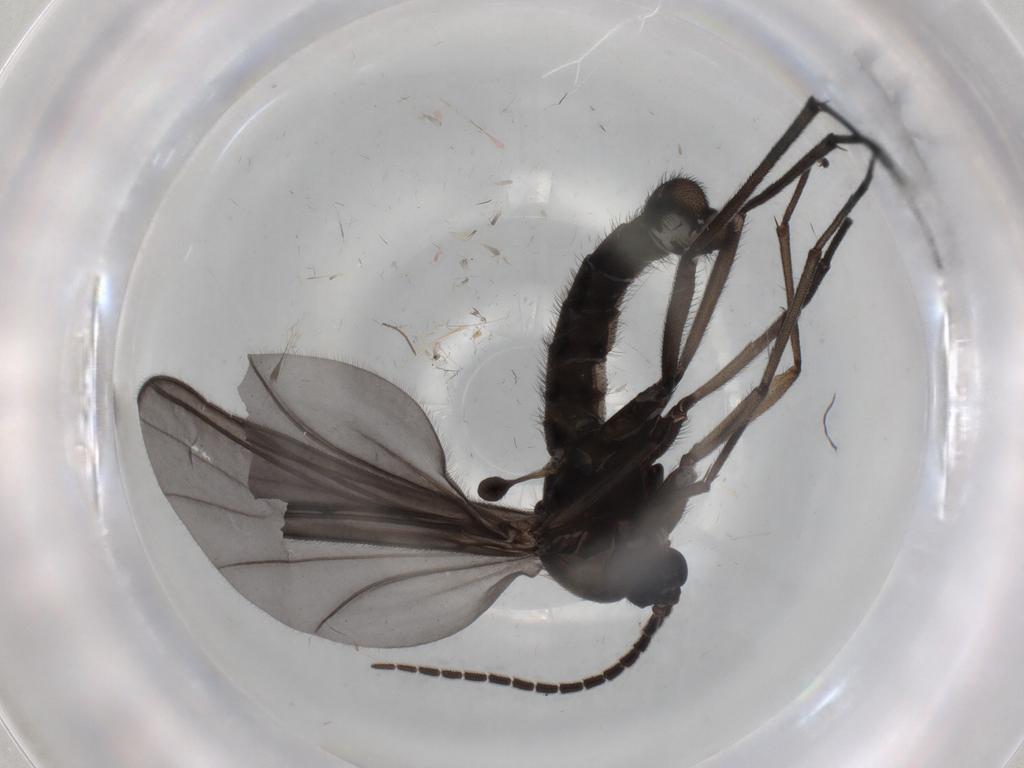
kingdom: Animalia
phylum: Arthropoda
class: Insecta
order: Diptera
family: Sciaridae
